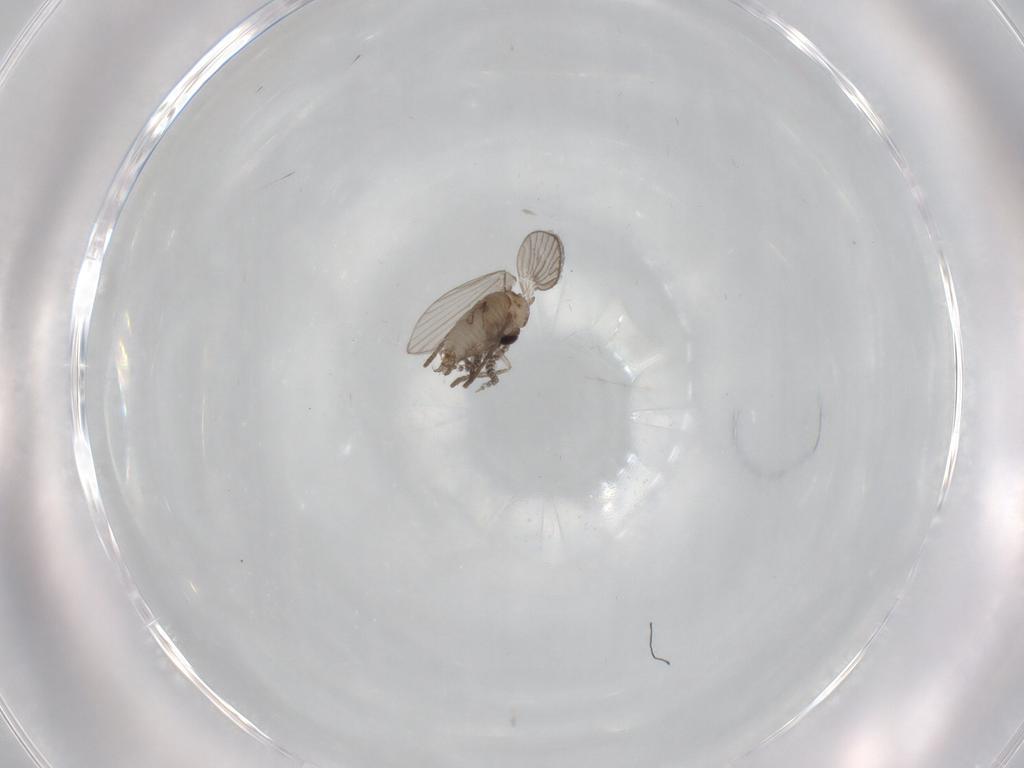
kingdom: Animalia
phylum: Arthropoda
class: Insecta
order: Diptera
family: Psychodidae
